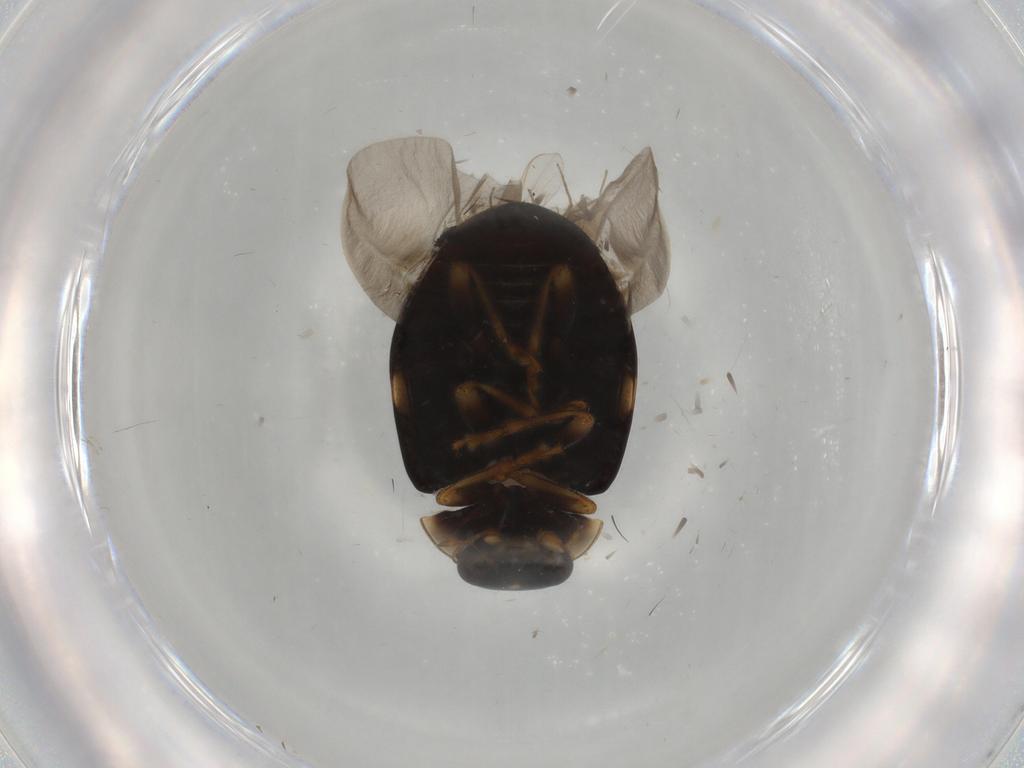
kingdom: Animalia
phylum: Arthropoda
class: Insecta
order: Coleoptera
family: Coccinellidae
